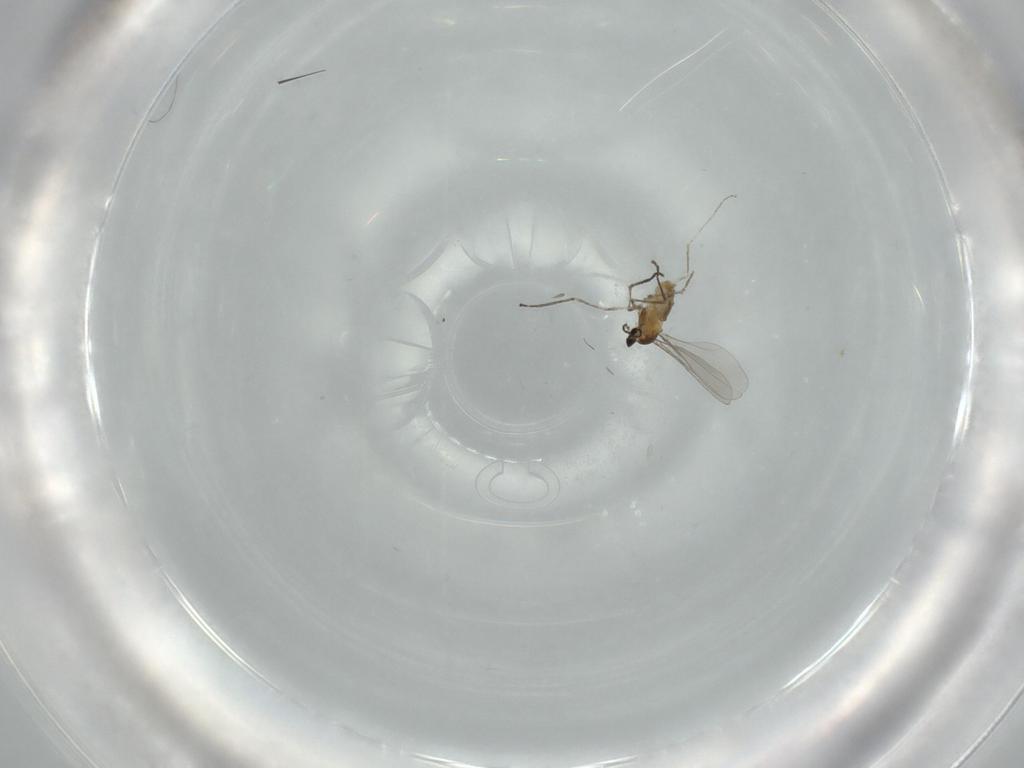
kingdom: Animalia
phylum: Arthropoda
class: Insecta
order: Diptera
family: Cecidomyiidae
